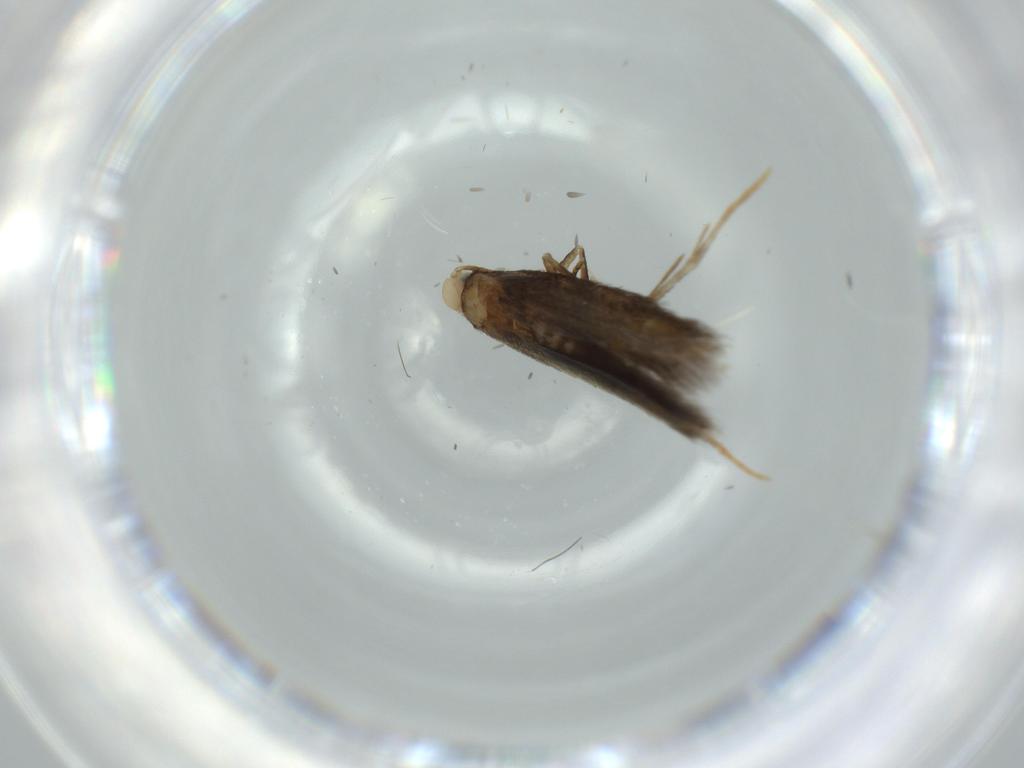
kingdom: Animalia
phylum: Arthropoda
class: Insecta
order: Lepidoptera
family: Tischeriidae
